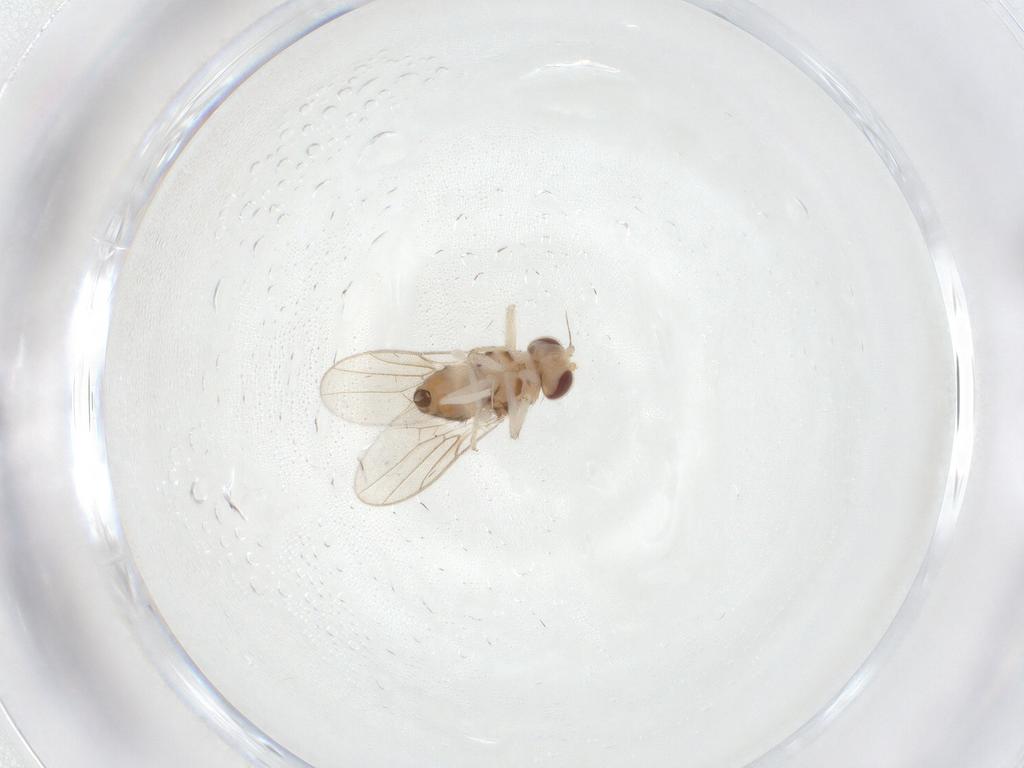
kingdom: Animalia
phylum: Arthropoda
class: Insecta
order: Diptera
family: Chloropidae
